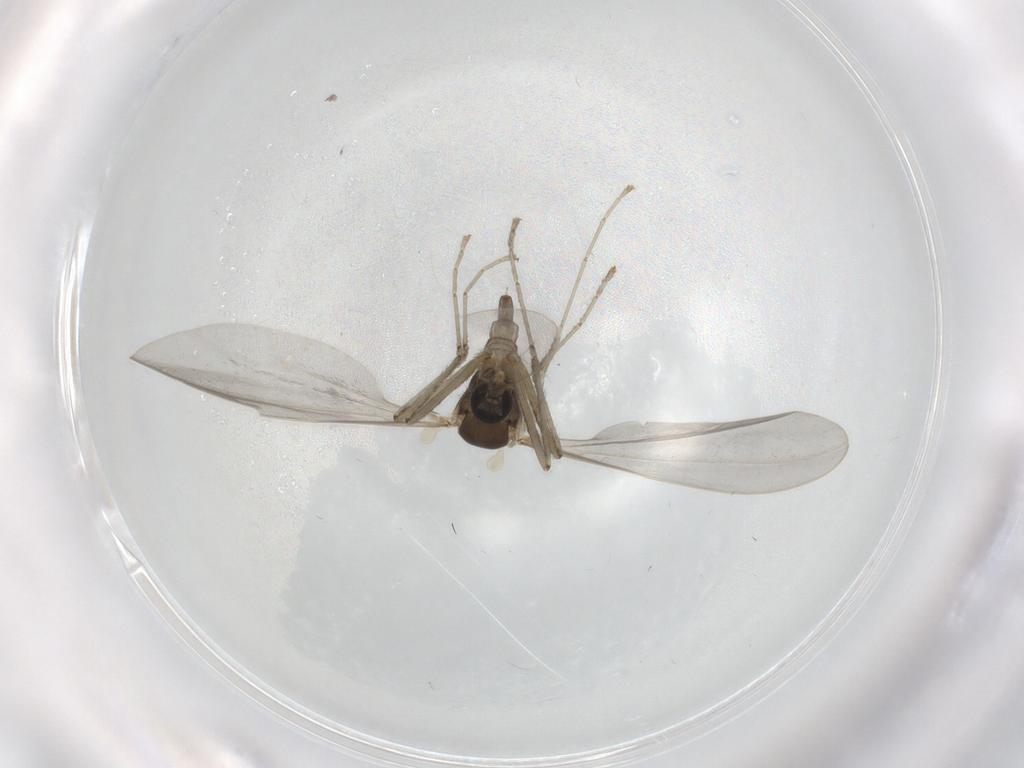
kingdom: Animalia
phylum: Arthropoda
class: Insecta
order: Diptera
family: Cecidomyiidae
